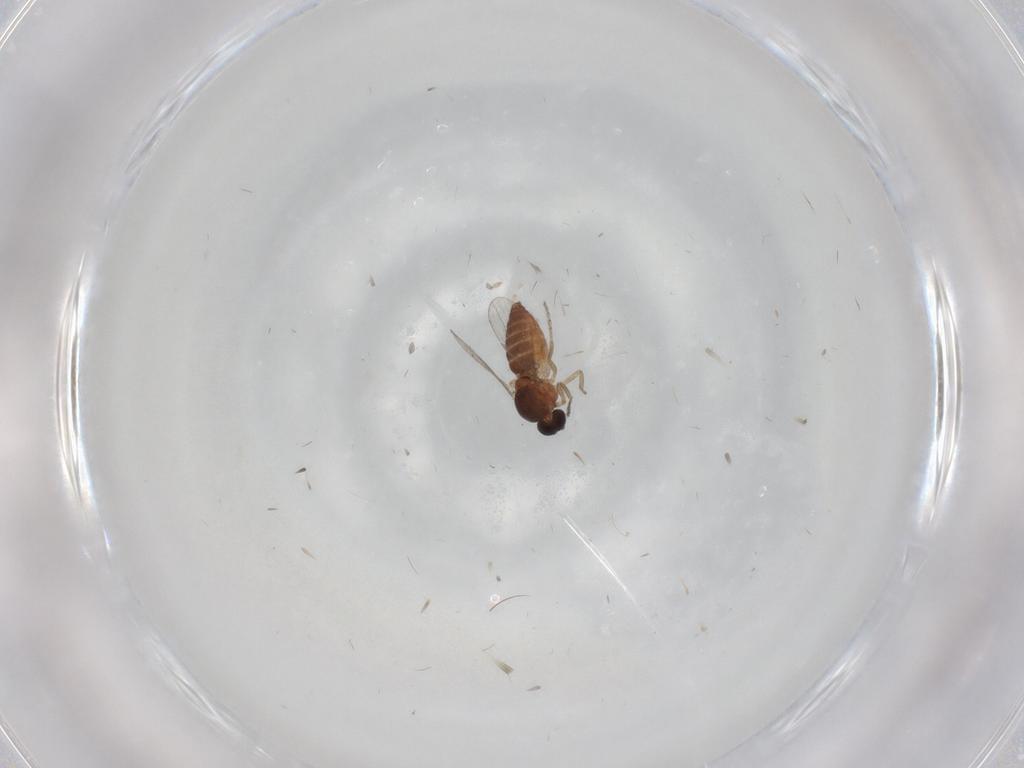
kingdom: Animalia
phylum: Arthropoda
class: Insecta
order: Diptera
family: Ceratopogonidae
